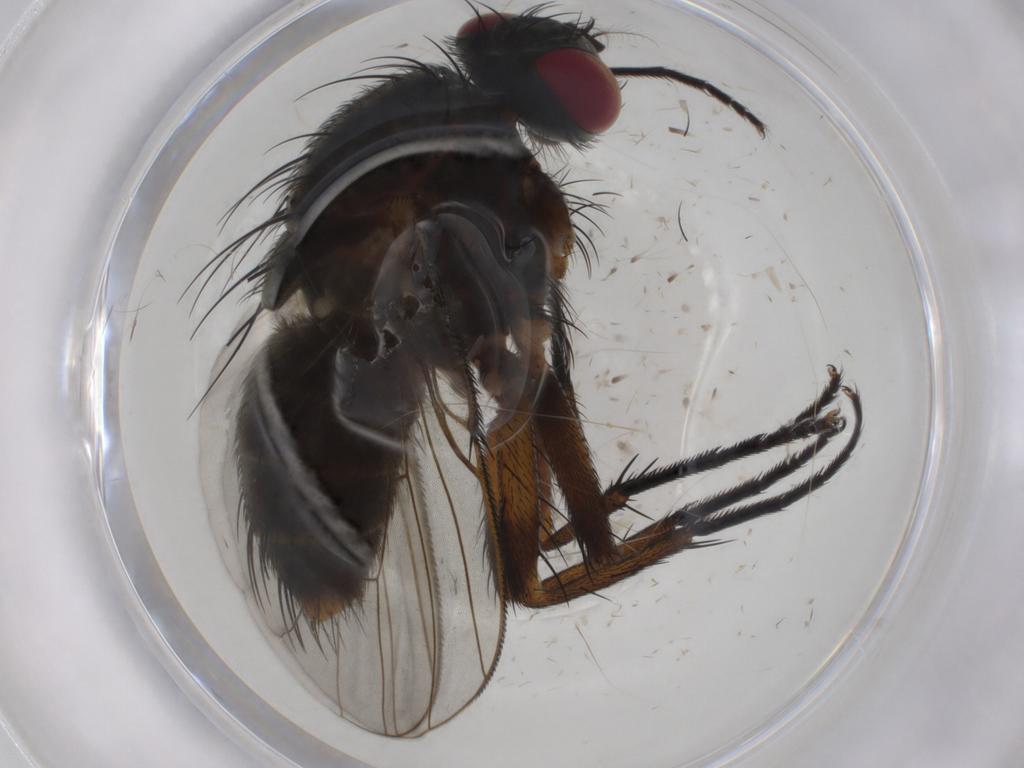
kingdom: Animalia
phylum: Arthropoda
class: Insecta
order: Diptera
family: Muscidae
